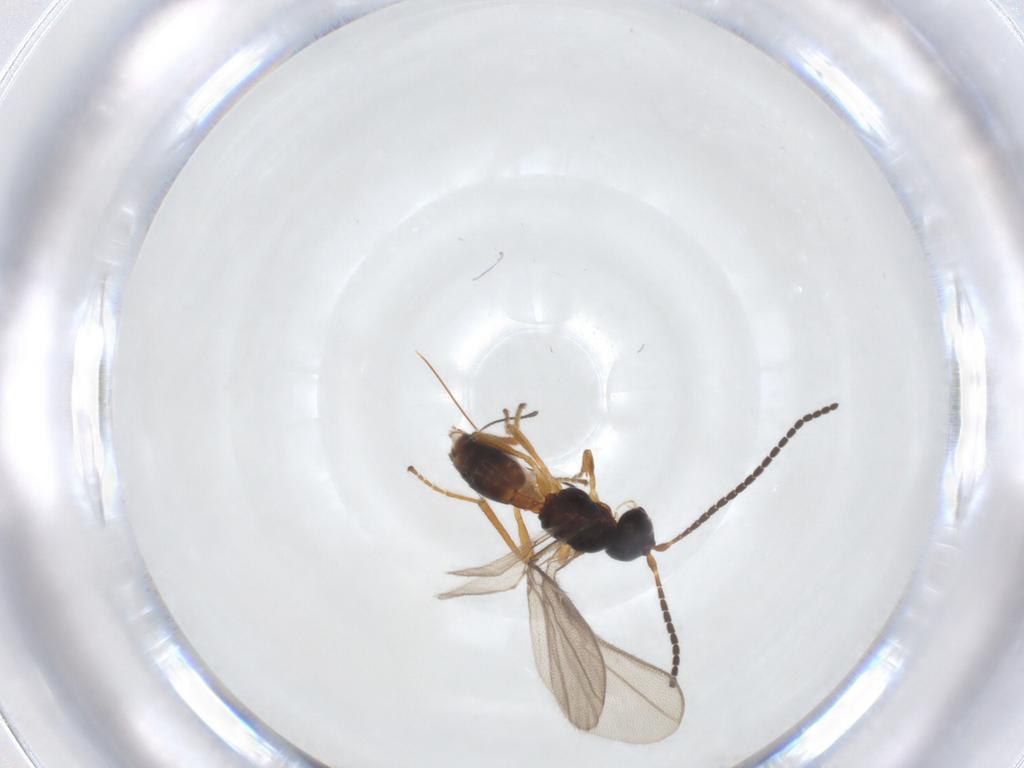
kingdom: Animalia
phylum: Arthropoda
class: Insecta
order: Hymenoptera
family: Braconidae
